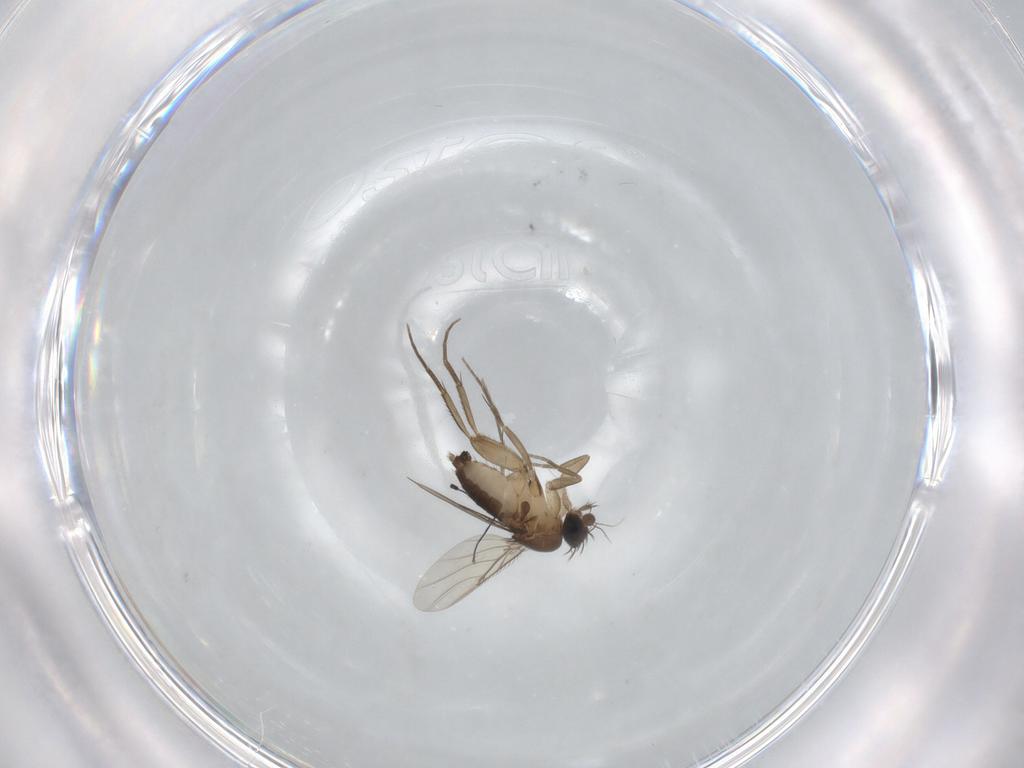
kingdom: Animalia
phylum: Arthropoda
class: Insecta
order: Diptera
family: Phoridae
